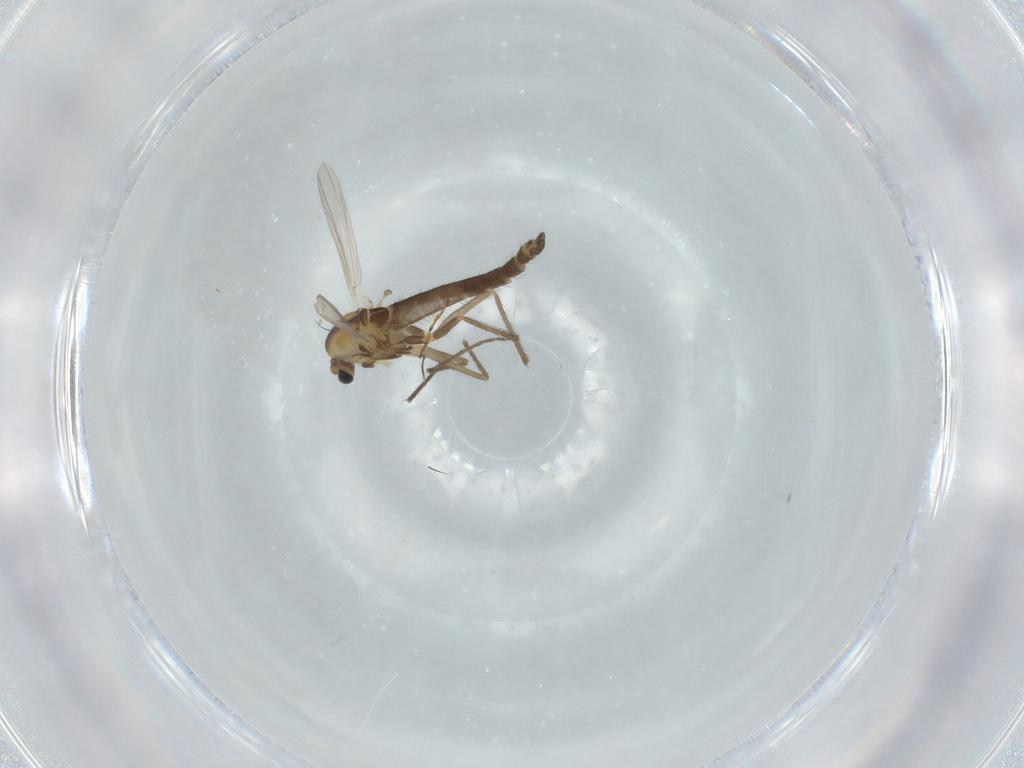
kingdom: Animalia
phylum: Arthropoda
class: Insecta
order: Diptera
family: Chironomidae
